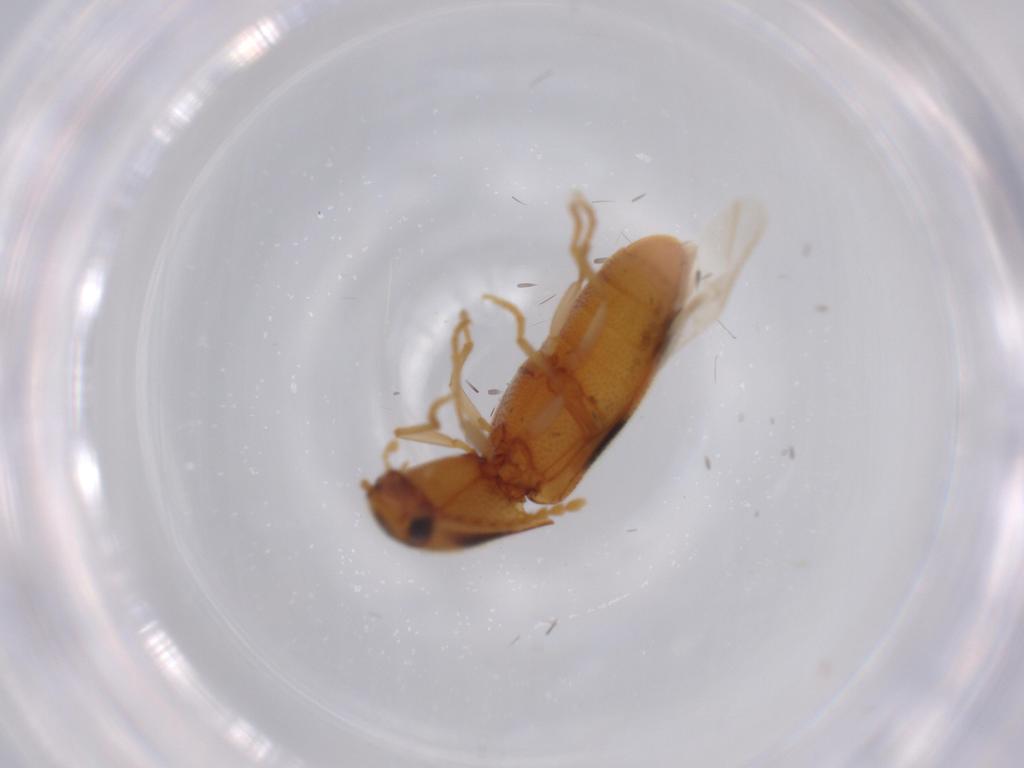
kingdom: Animalia
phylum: Arthropoda
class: Insecta
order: Coleoptera
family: Elateridae
